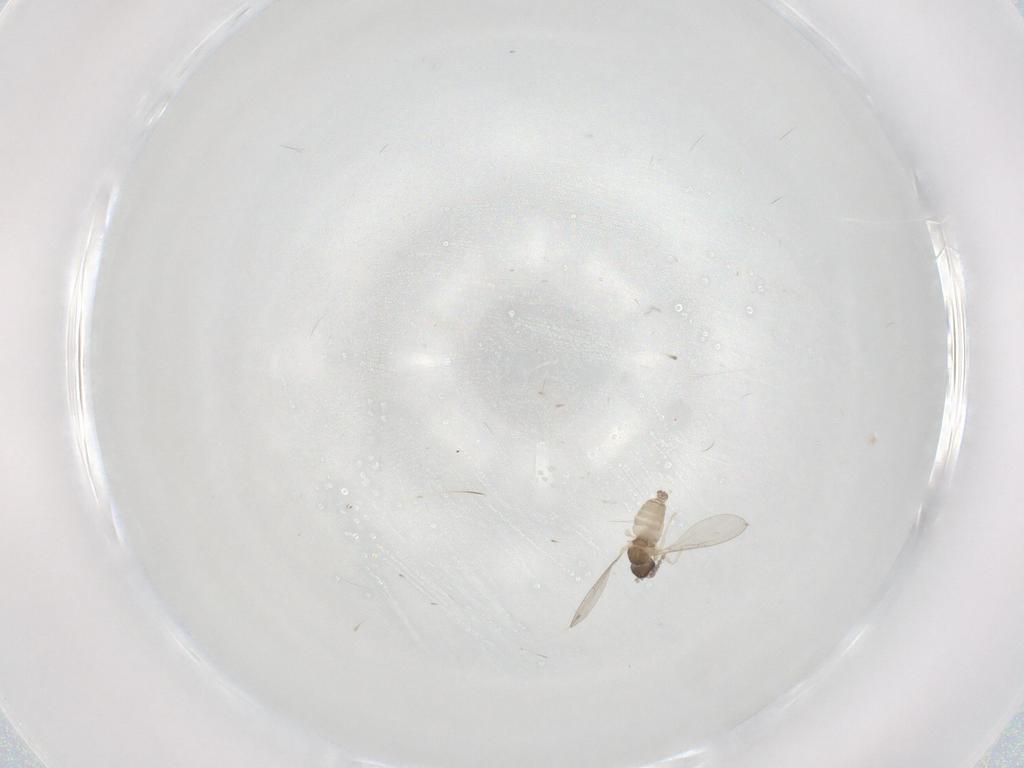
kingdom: Animalia
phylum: Arthropoda
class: Insecta
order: Diptera
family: Cecidomyiidae
